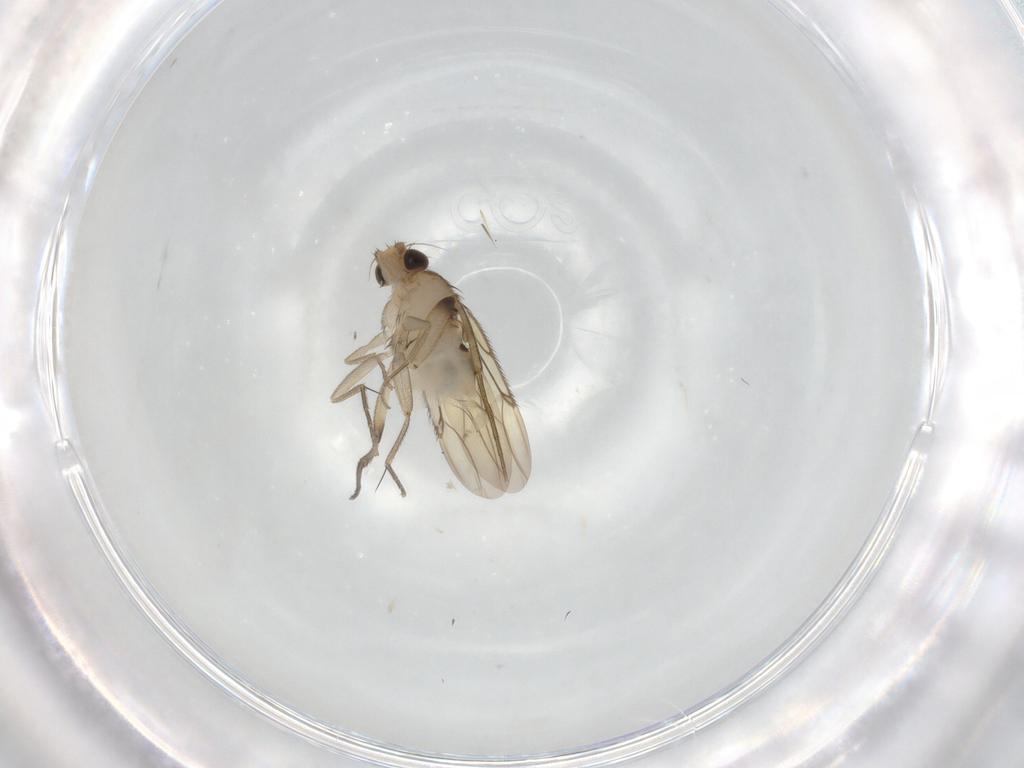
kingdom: Animalia
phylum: Arthropoda
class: Insecta
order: Diptera
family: Phoridae
